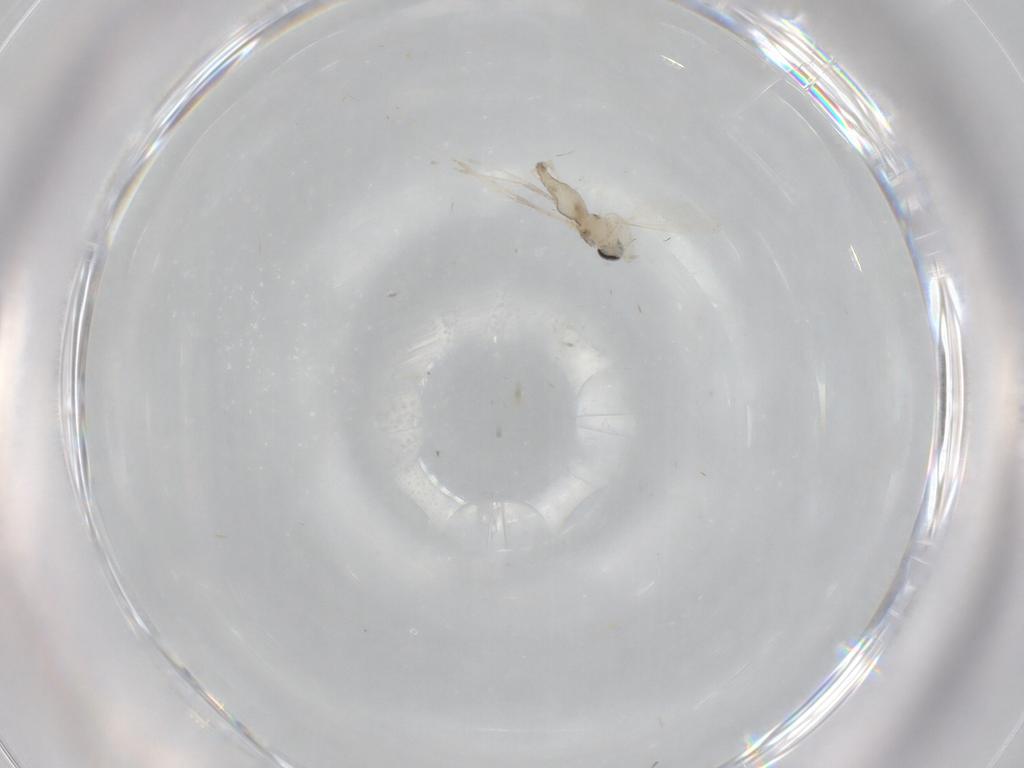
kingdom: Animalia
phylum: Arthropoda
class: Insecta
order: Diptera
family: Cecidomyiidae
